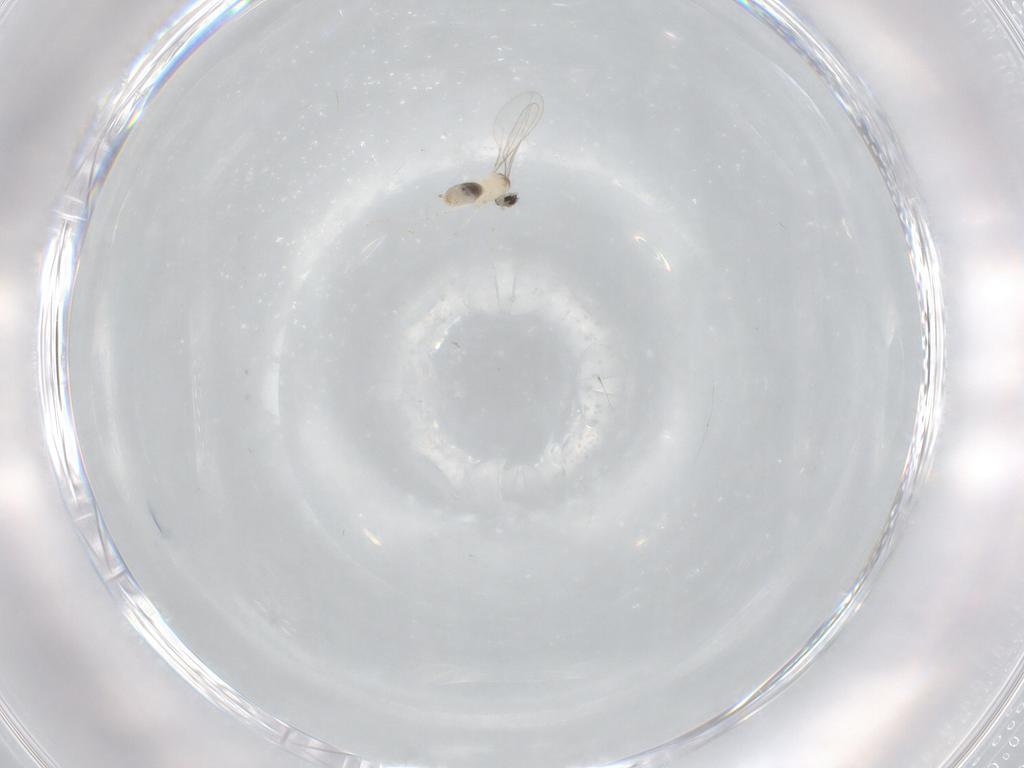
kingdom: Animalia
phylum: Arthropoda
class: Insecta
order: Diptera
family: Cecidomyiidae
